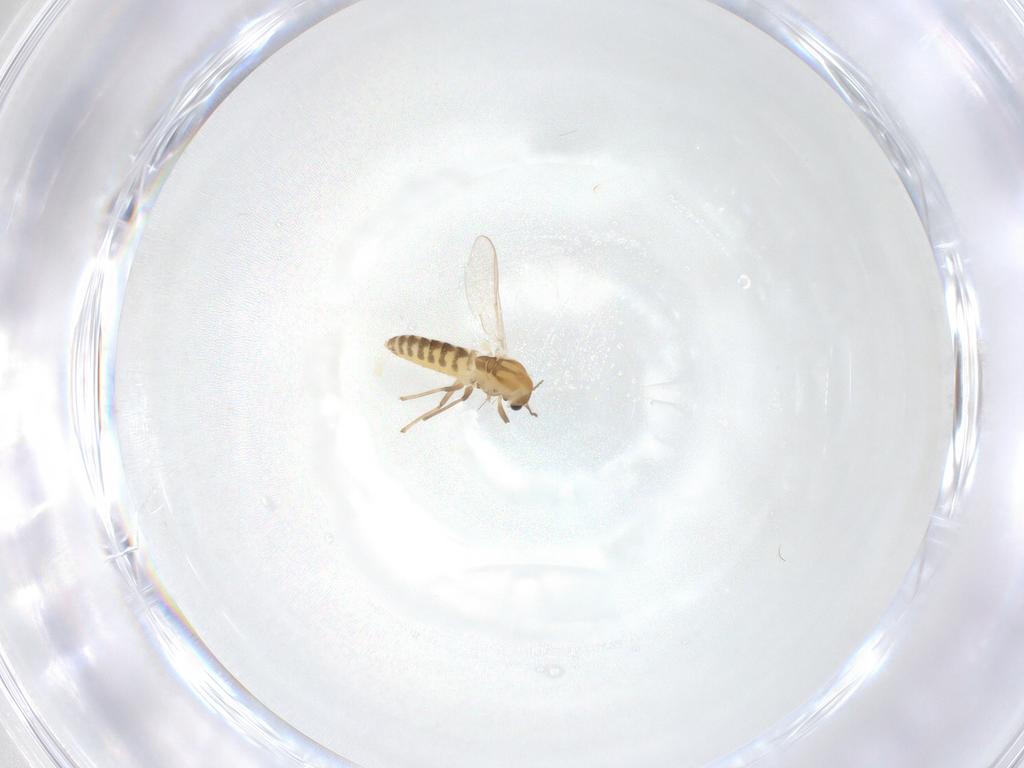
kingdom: Animalia
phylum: Arthropoda
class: Insecta
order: Diptera
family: Chironomidae
